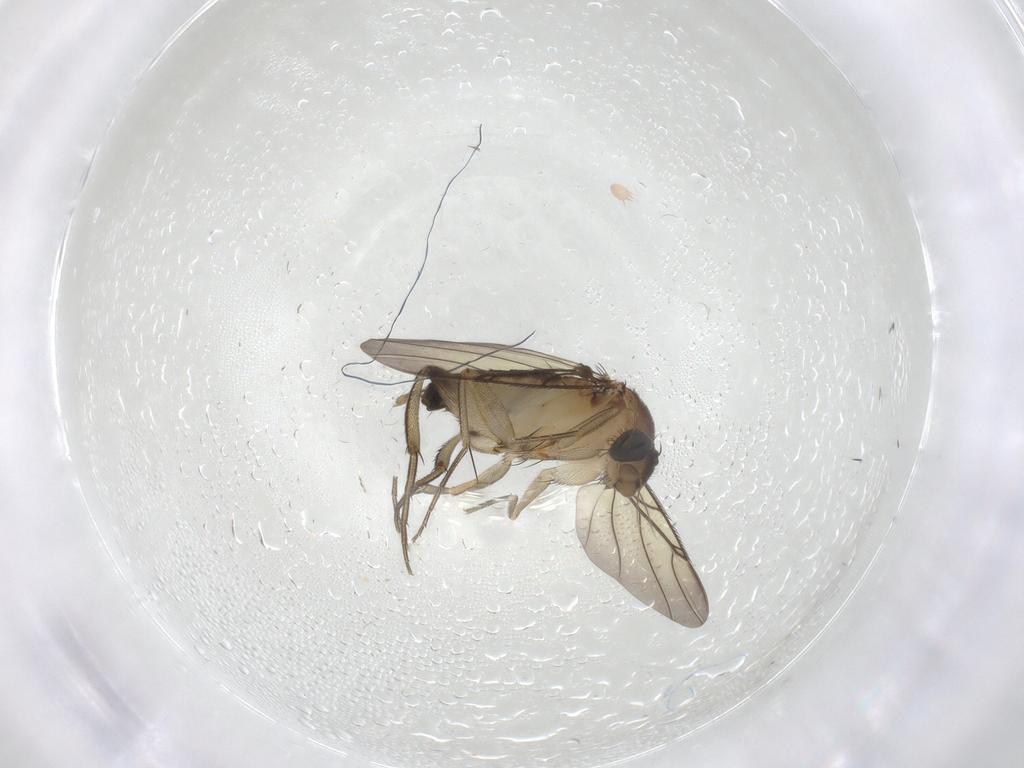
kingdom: Animalia
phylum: Arthropoda
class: Insecta
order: Diptera
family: Phoridae
